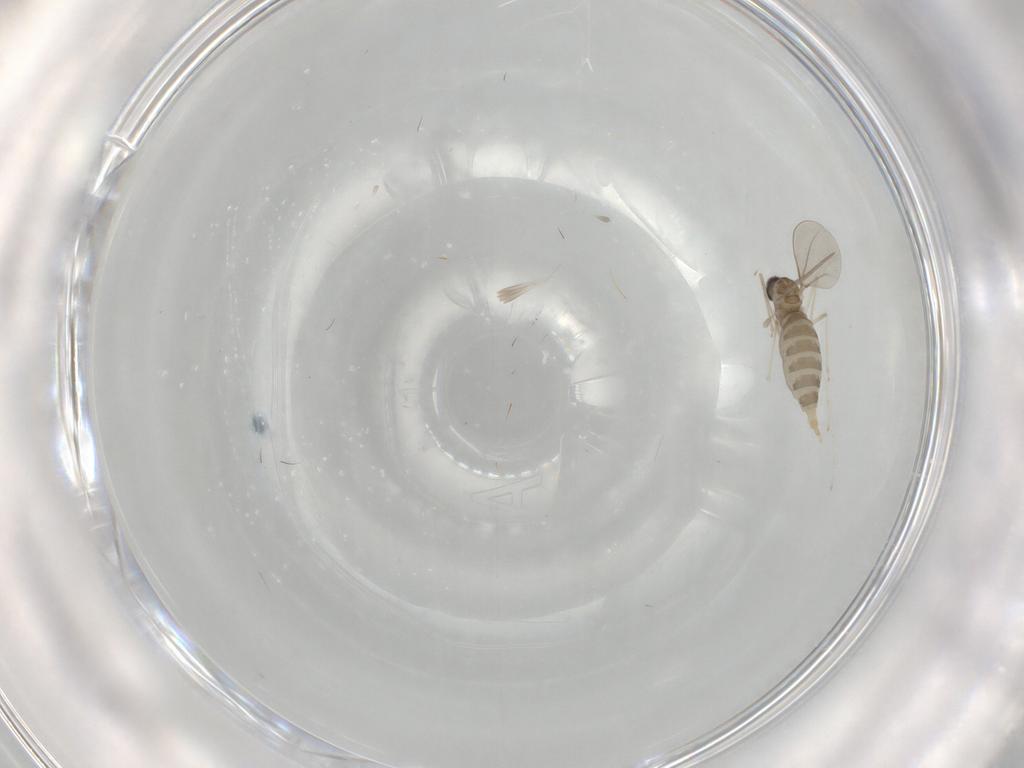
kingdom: Animalia
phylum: Arthropoda
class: Insecta
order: Diptera
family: Cecidomyiidae
